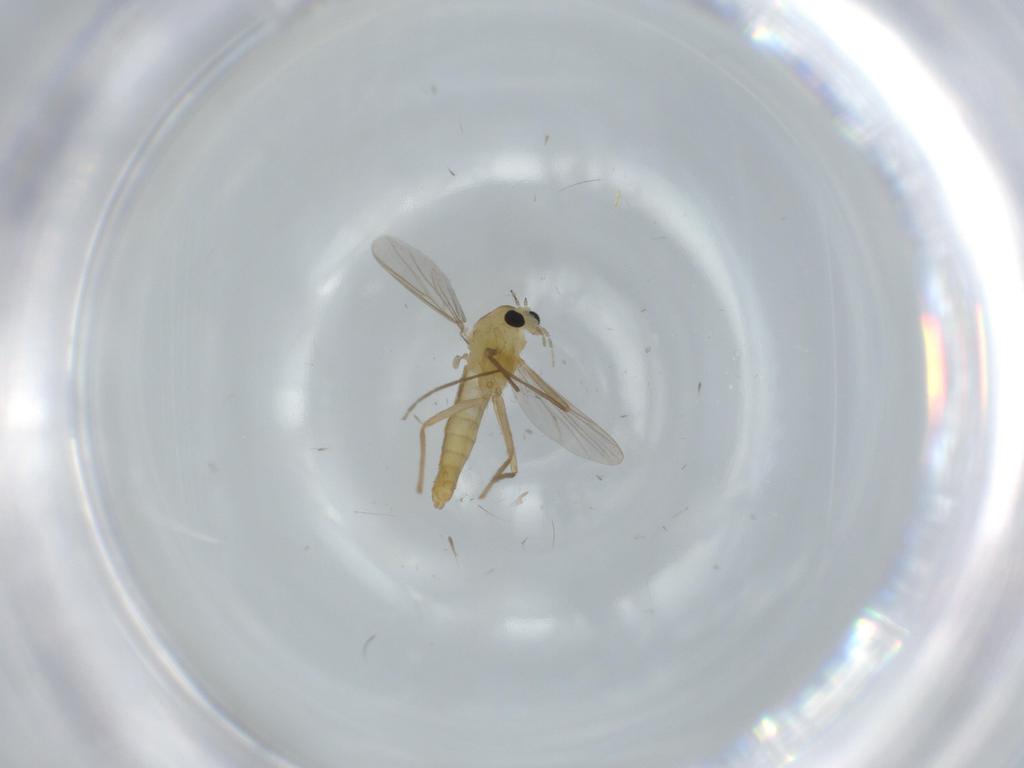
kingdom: Animalia
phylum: Arthropoda
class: Insecta
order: Diptera
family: Chironomidae
